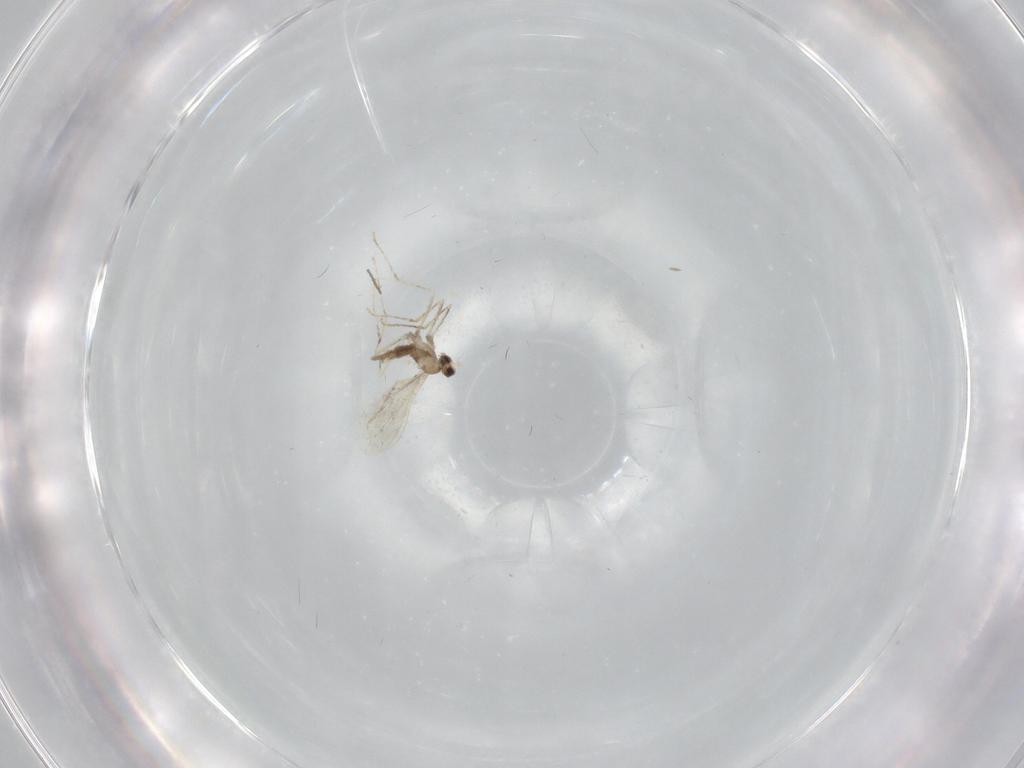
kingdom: Animalia
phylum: Arthropoda
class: Insecta
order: Diptera
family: Cecidomyiidae
